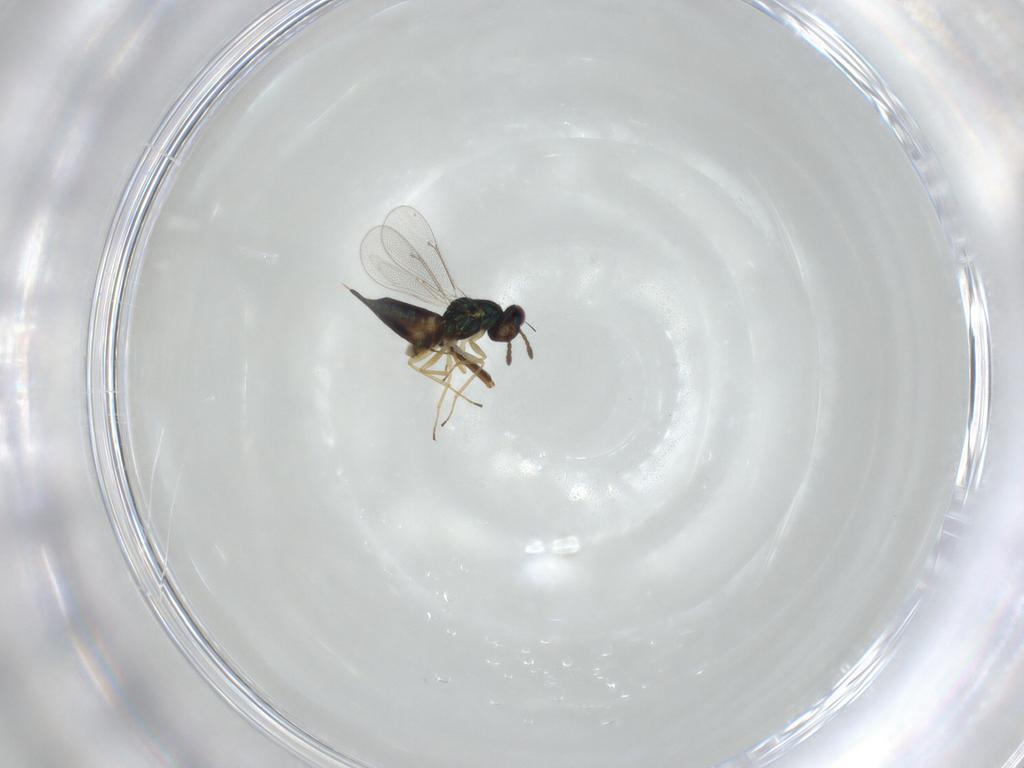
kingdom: Animalia
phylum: Arthropoda
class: Insecta
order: Hymenoptera
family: Eulophidae
